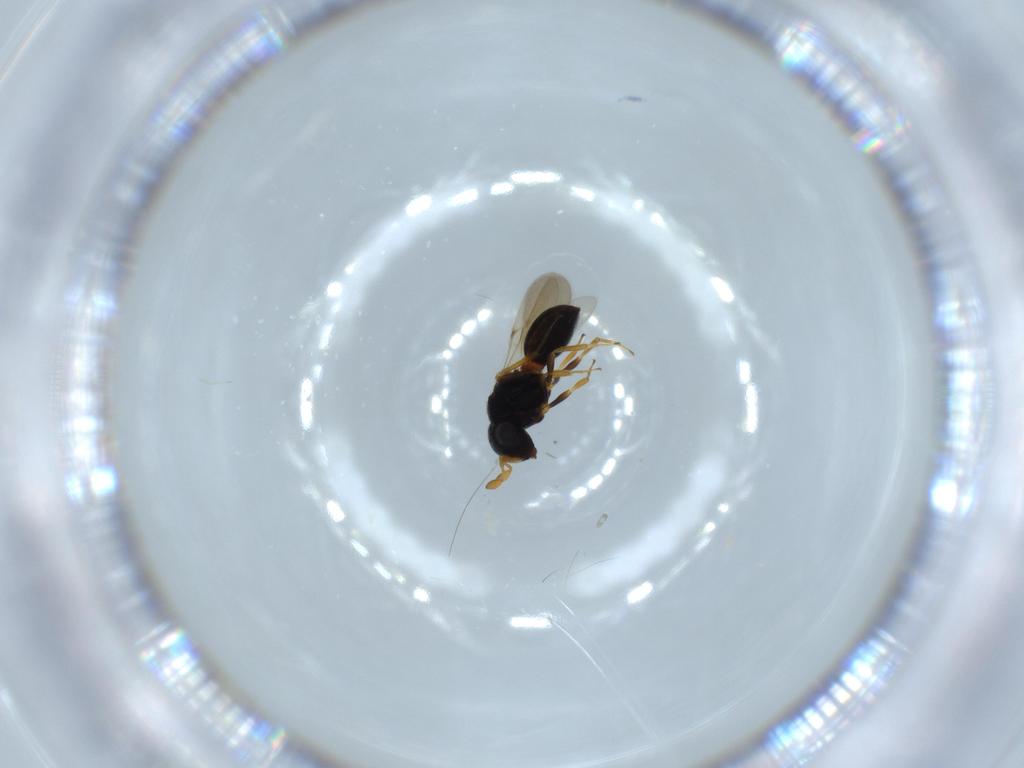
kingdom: Animalia
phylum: Arthropoda
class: Insecta
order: Hymenoptera
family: Scelionidae
